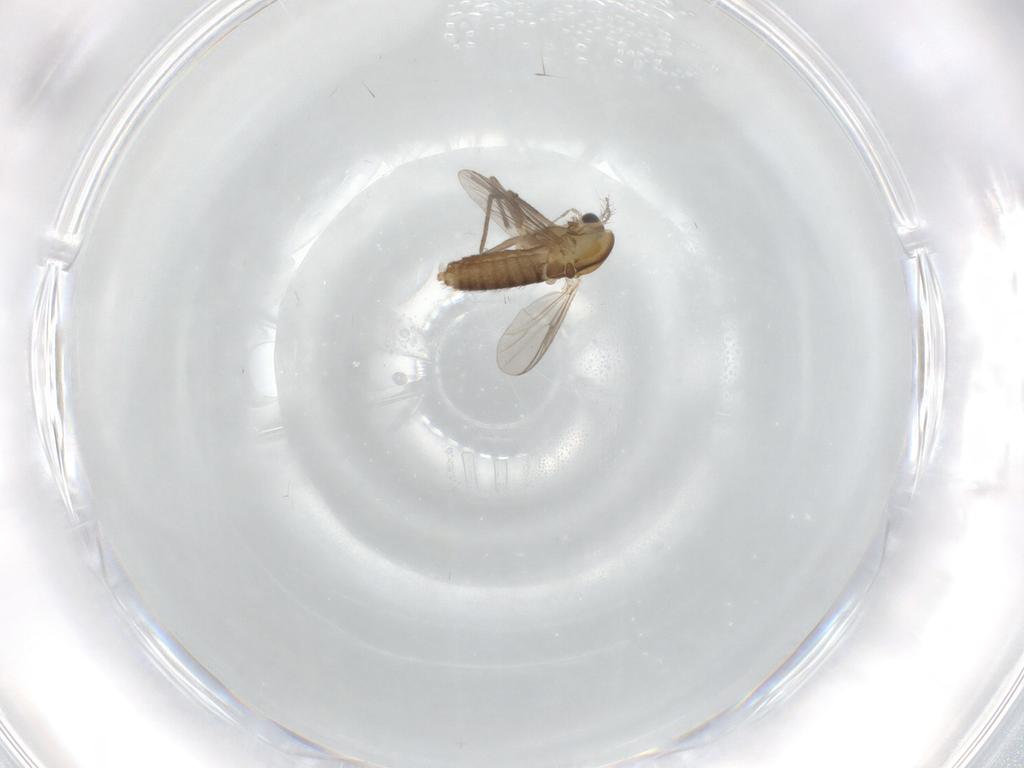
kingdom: Animalia
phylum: Arthropoda
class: Insecta
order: Diptera
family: Chironomidae
